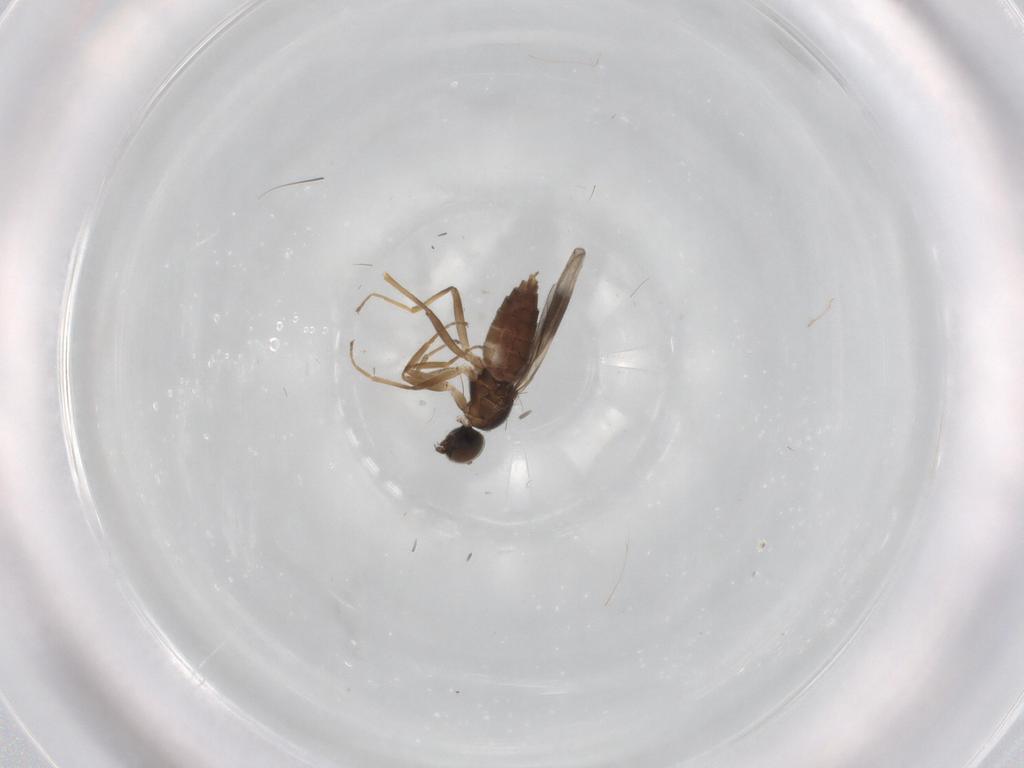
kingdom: Animalia
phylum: Arthropoda
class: Insecta
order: Diptera
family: Hybotidae
